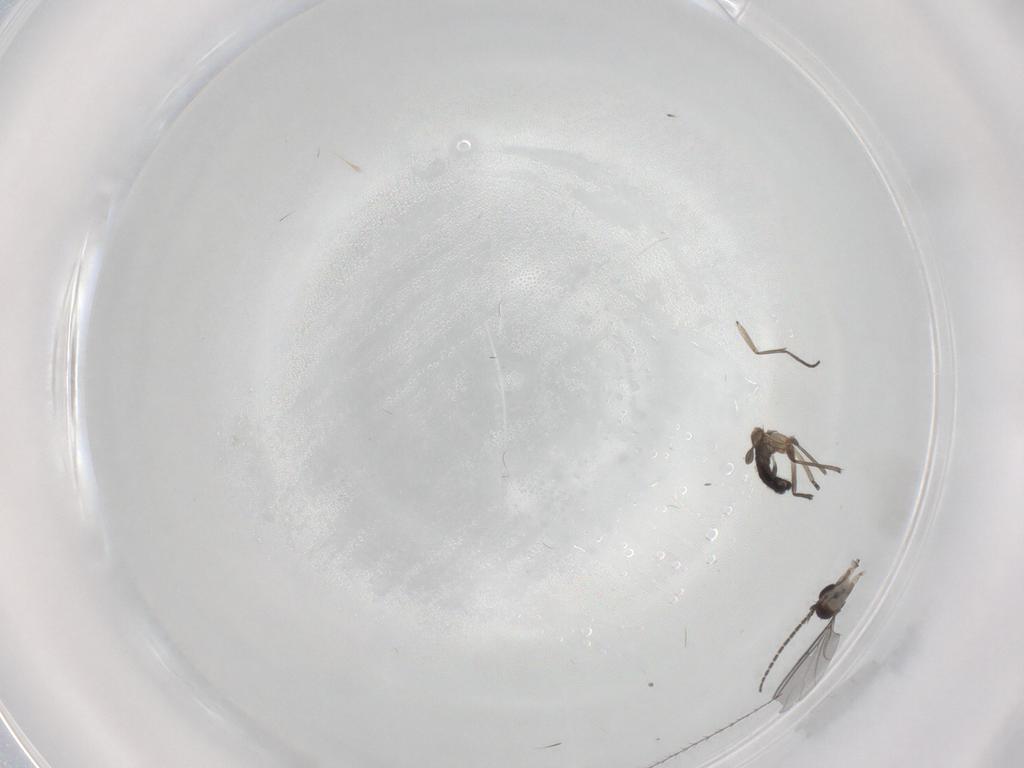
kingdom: Animalia
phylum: Arthropoda
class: Insecta
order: Diptera
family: Sciaridae
